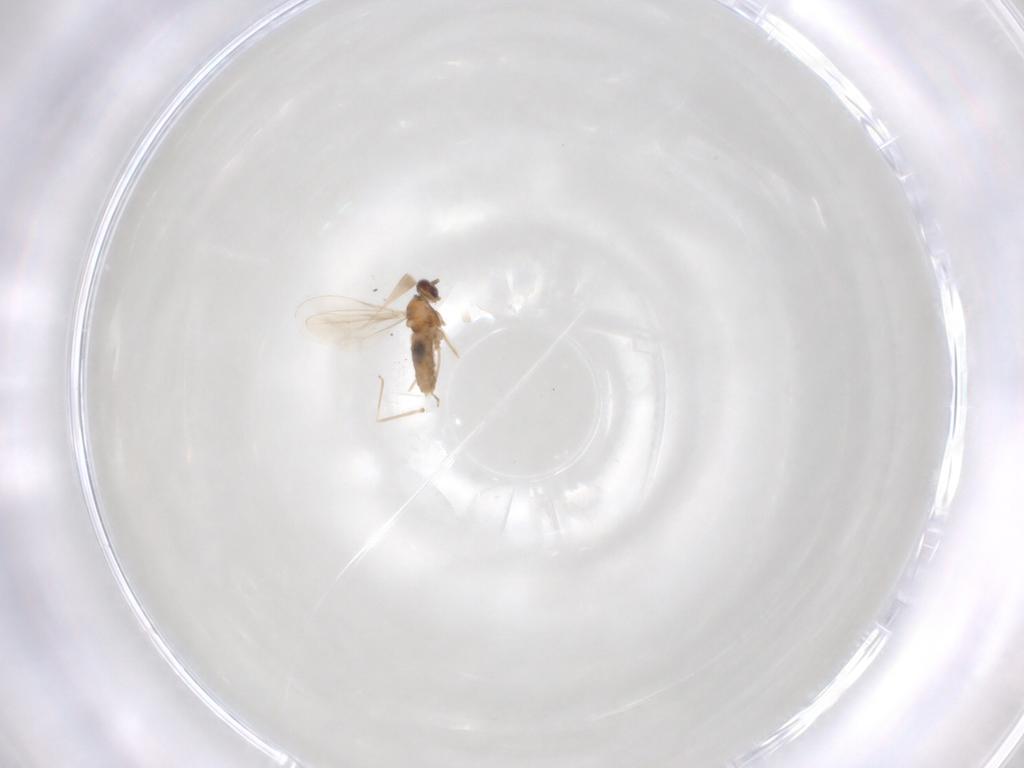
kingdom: Animalia
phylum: Arthropoda
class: Insecta
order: Diptera
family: Cecidomyiidae
